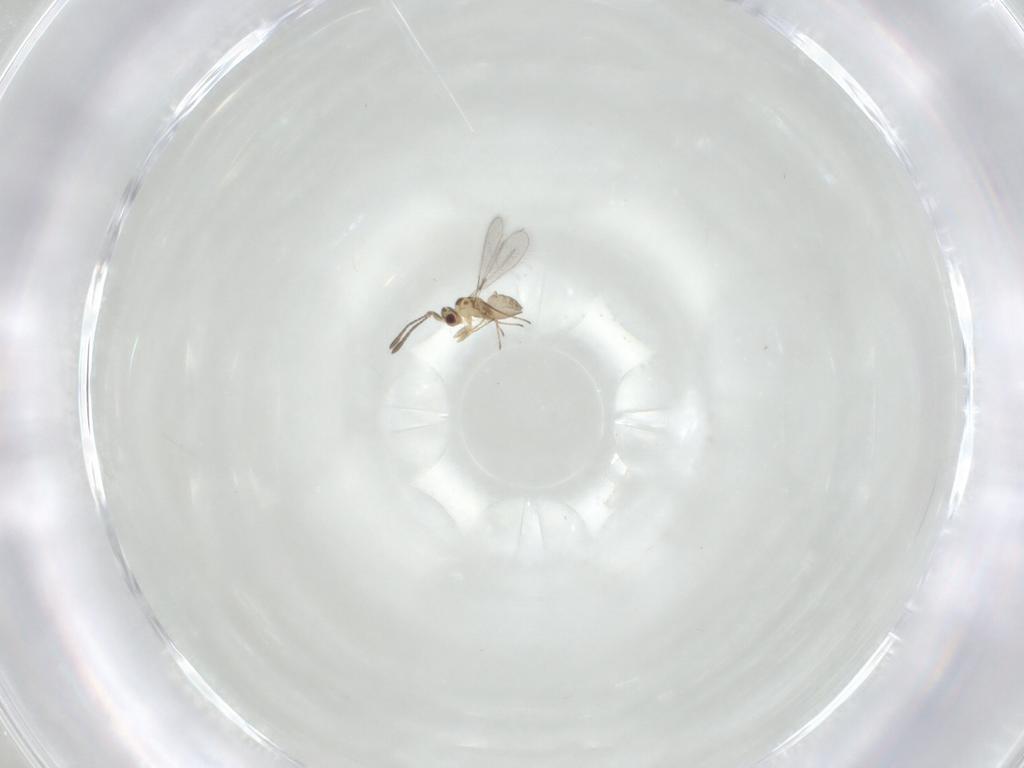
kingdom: Animalia
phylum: Arthropoda
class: Insecta
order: Hymenoptera
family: Mymaridae
